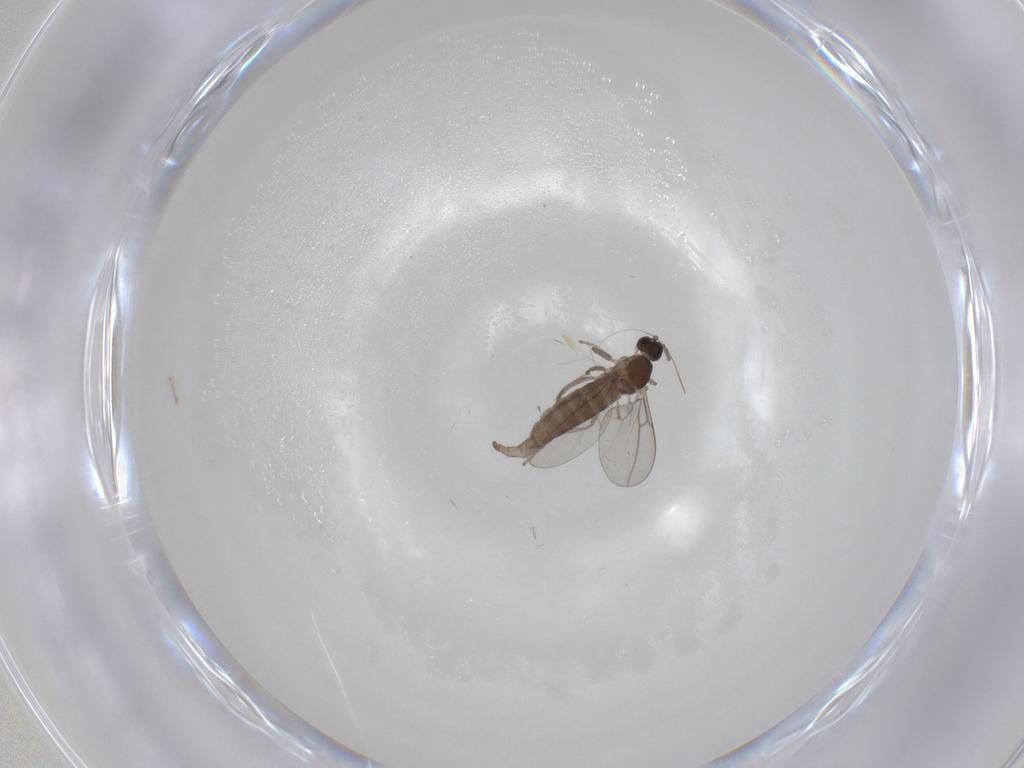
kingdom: Animalia
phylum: Arthropoda
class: Insecta
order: Diptera
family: Cecidomyiidae
